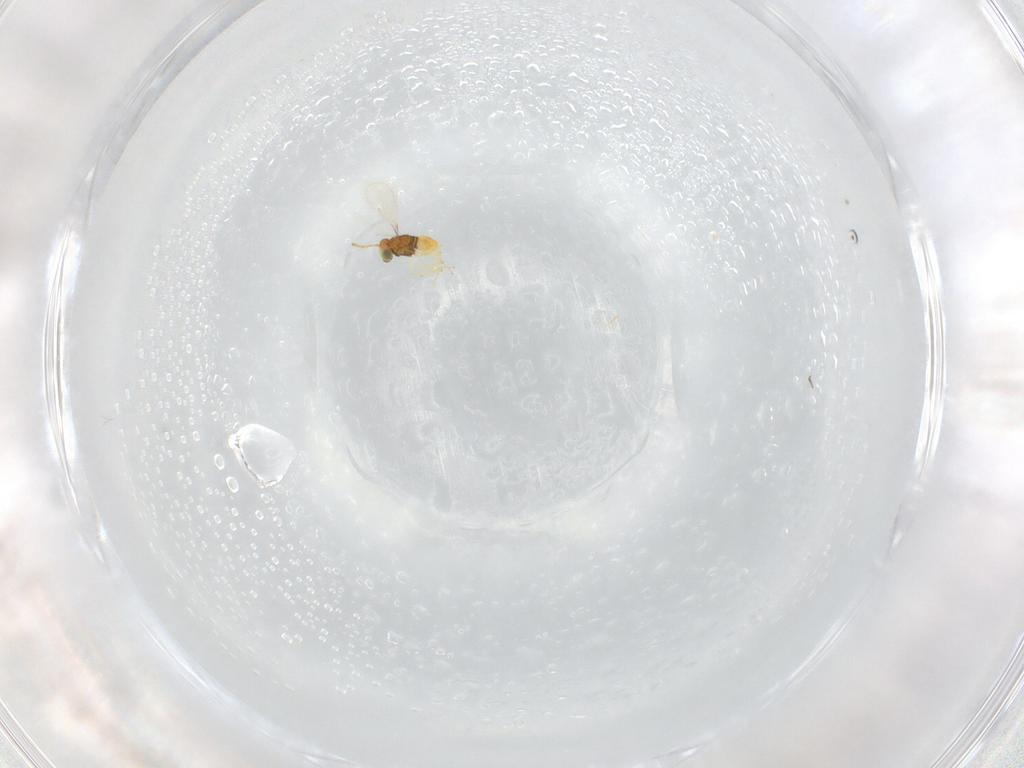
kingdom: Animalia
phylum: Arthropoda
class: Insecta
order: Hymenoptera
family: Aphelinidae
